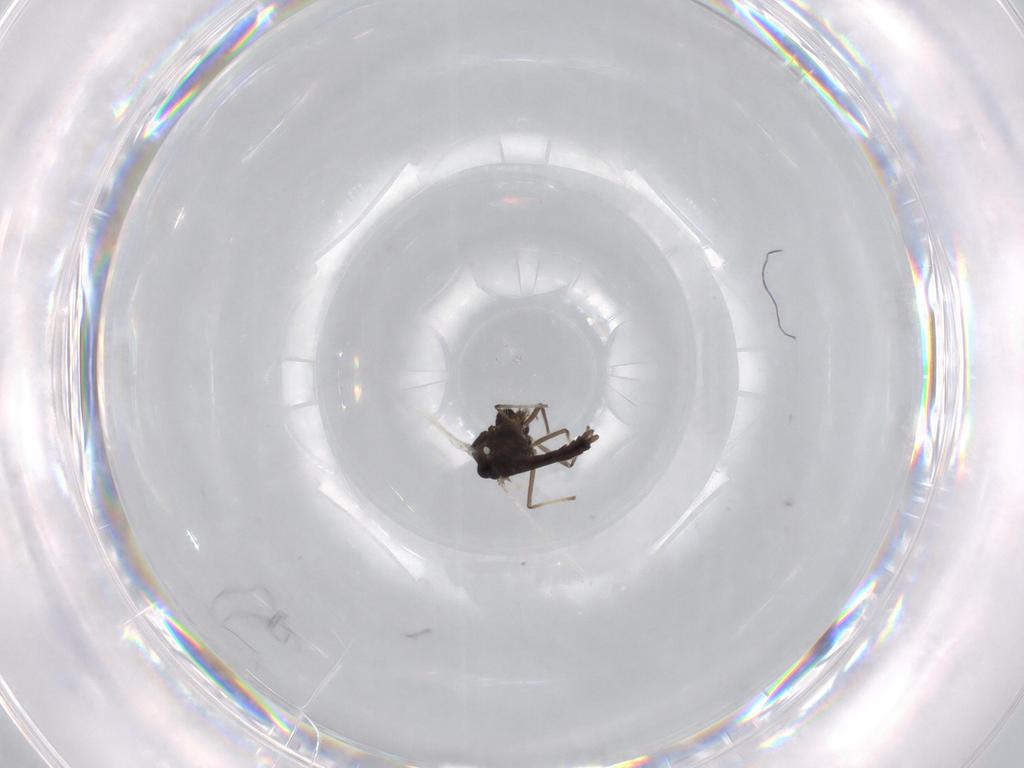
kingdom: Animalia
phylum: Arthropoda
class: Insecta
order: Diptera
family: Chironomidae
